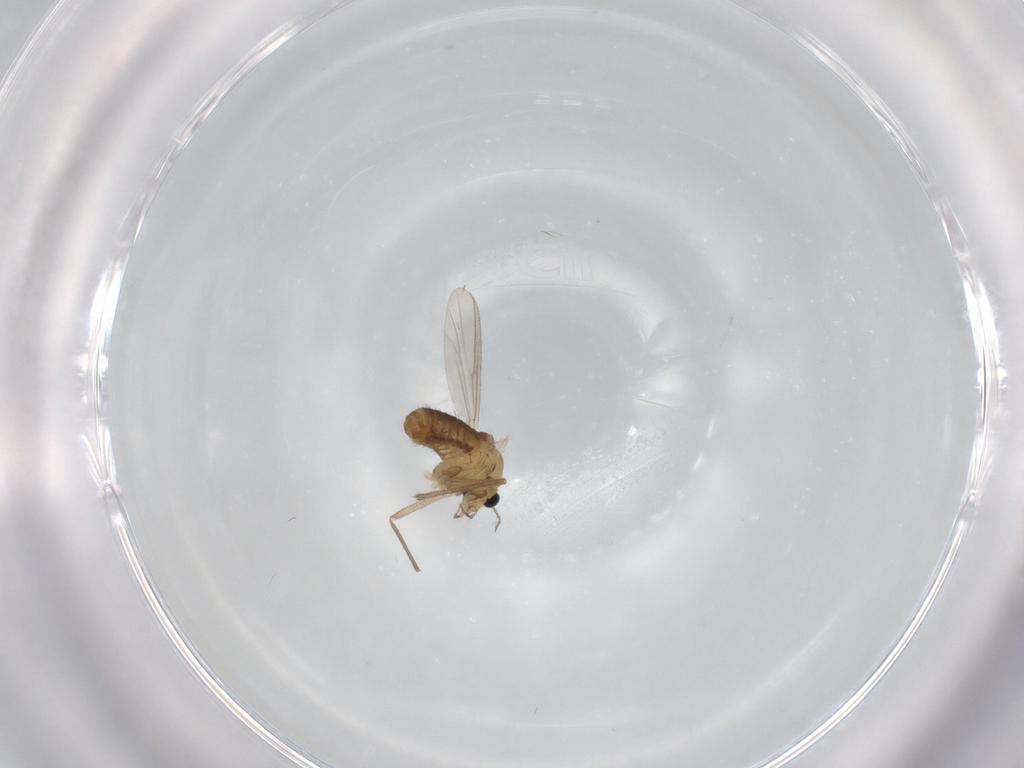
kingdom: Animalia
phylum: Arthropoda
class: Insecta
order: Diptera
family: Chironomidae
